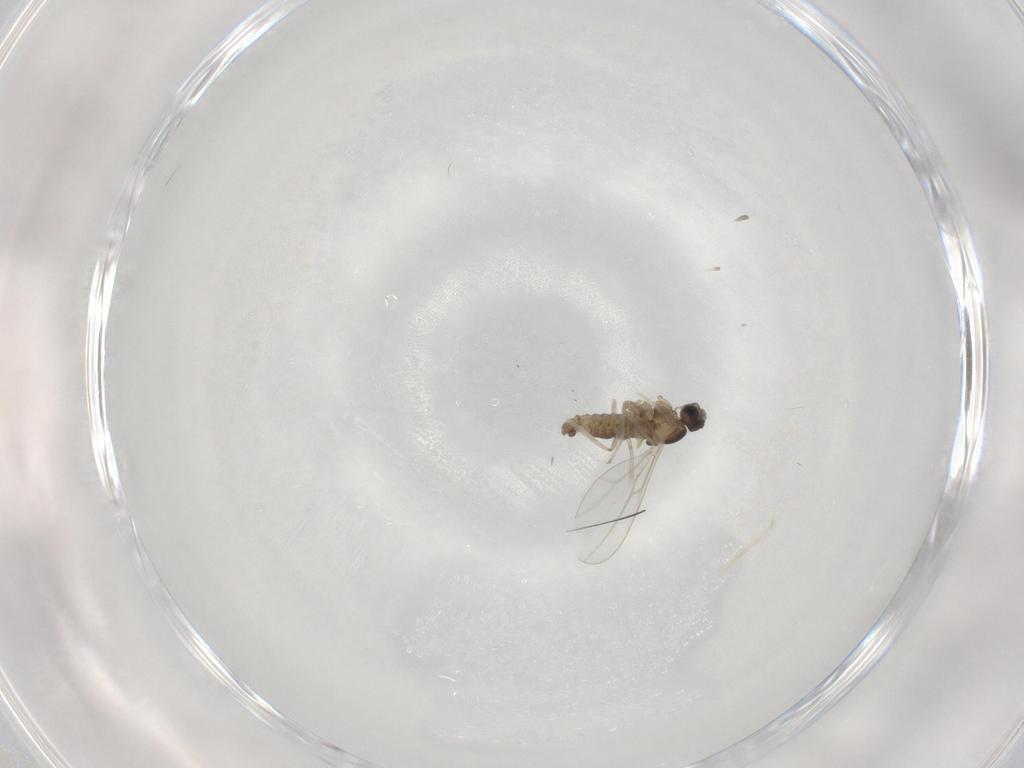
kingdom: Animalia
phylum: Arthropoda
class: Insecta
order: Diptera
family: Cecidomyiidae
